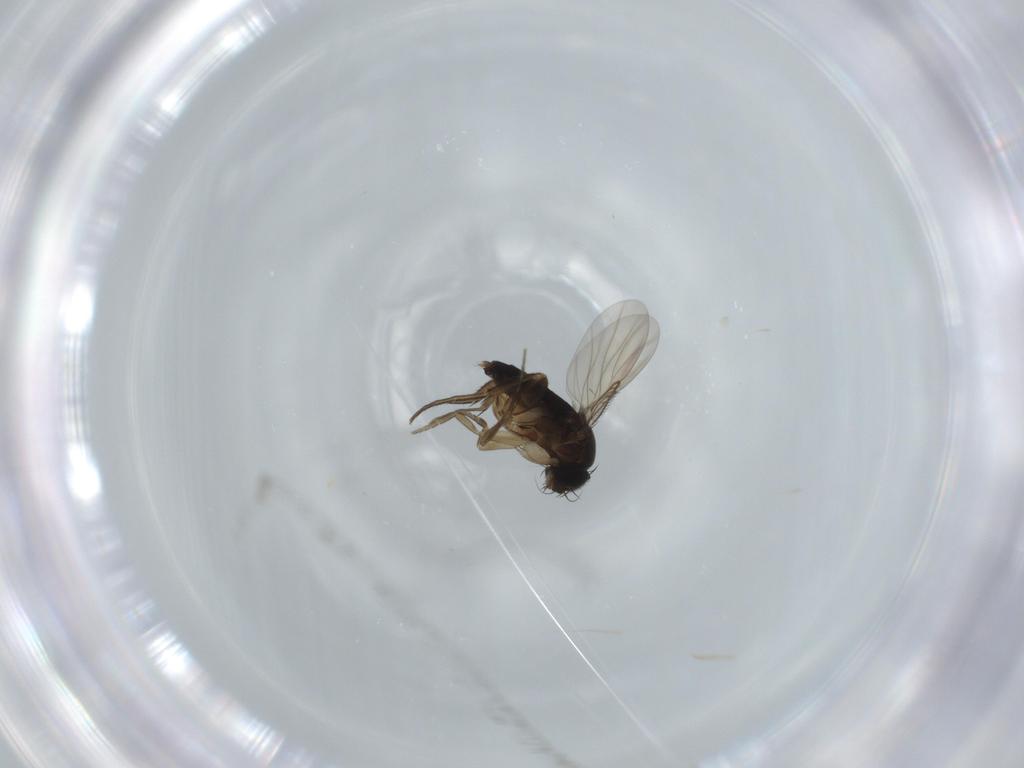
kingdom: Animalia
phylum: Arthropoda
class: Insecta
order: Diptera
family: Phoridae
